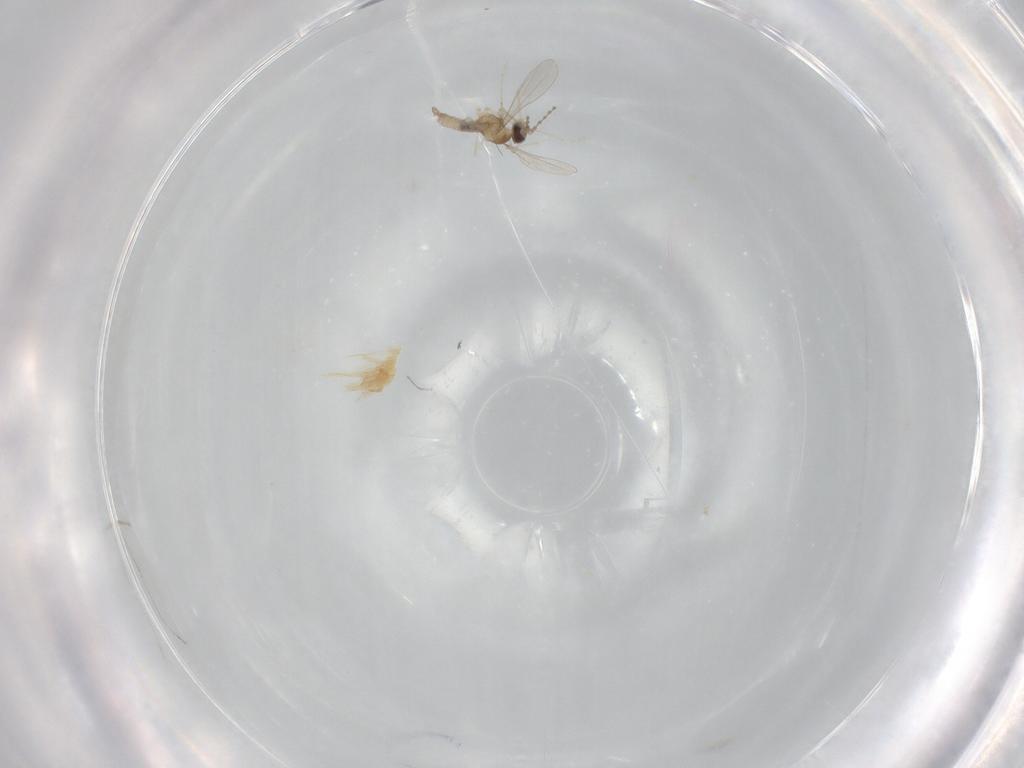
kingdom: Animalia
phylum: Arthropoda
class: Insecta
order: Diptera
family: Cecidomyiidae
